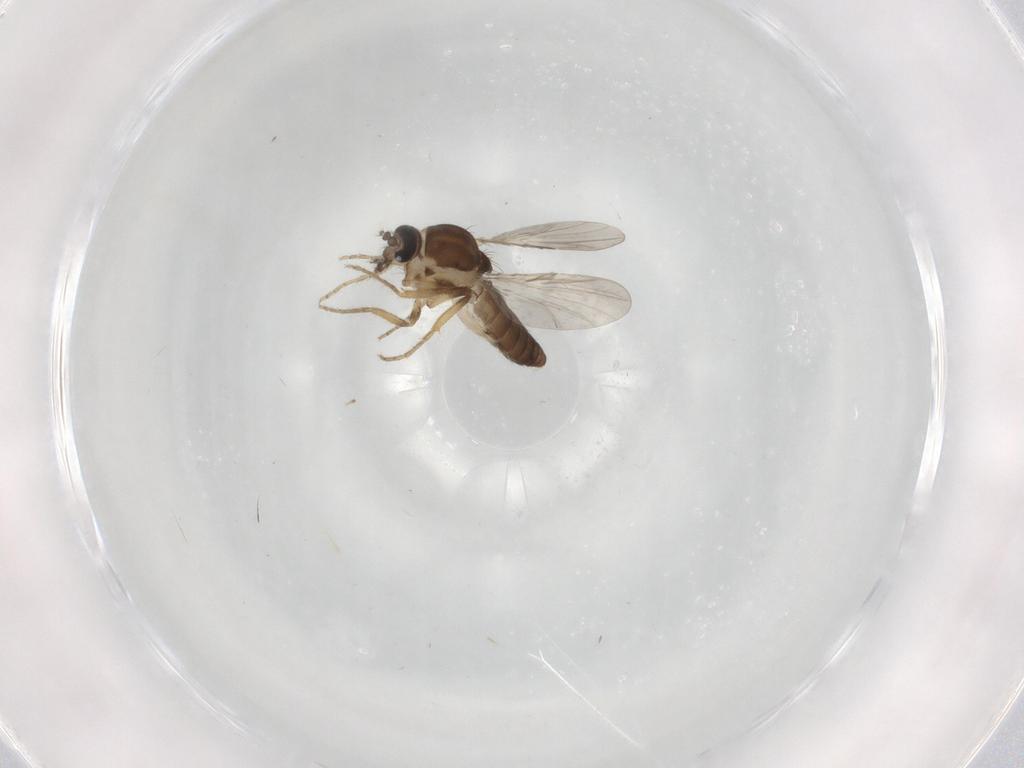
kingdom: Animalia
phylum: Arthropoda
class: Insecta
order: Diptera
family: Ceratopogonidae
